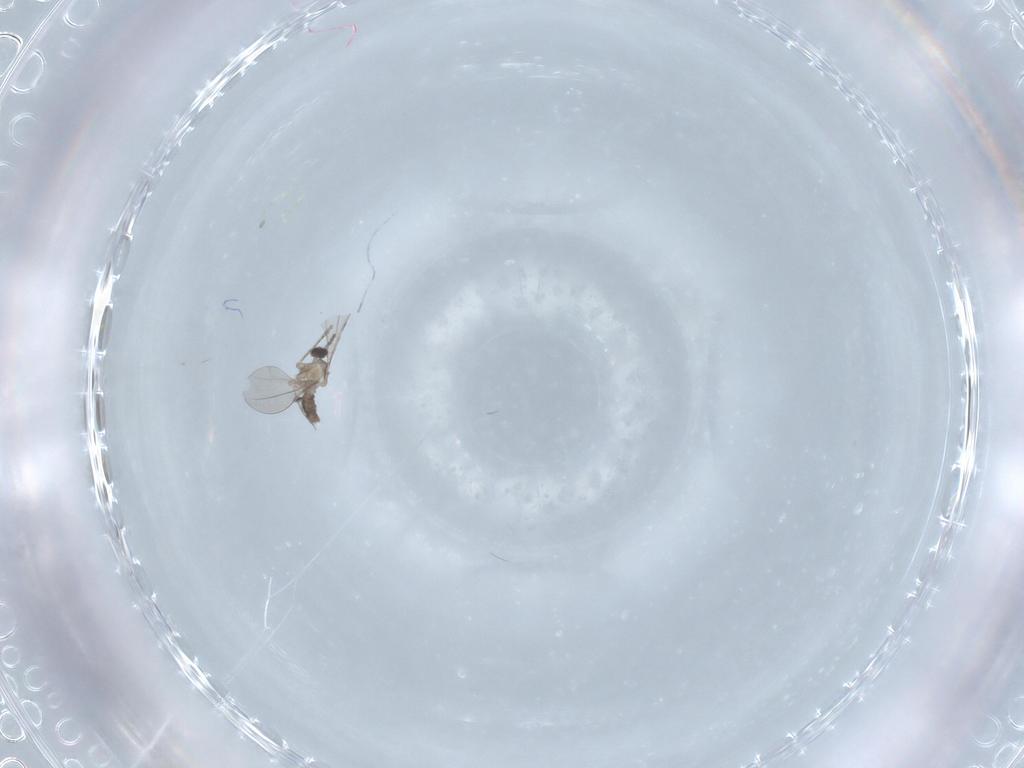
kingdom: Animalia
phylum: Arthropoda
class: Insecta
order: Diptera
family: Cecidomyiidae
